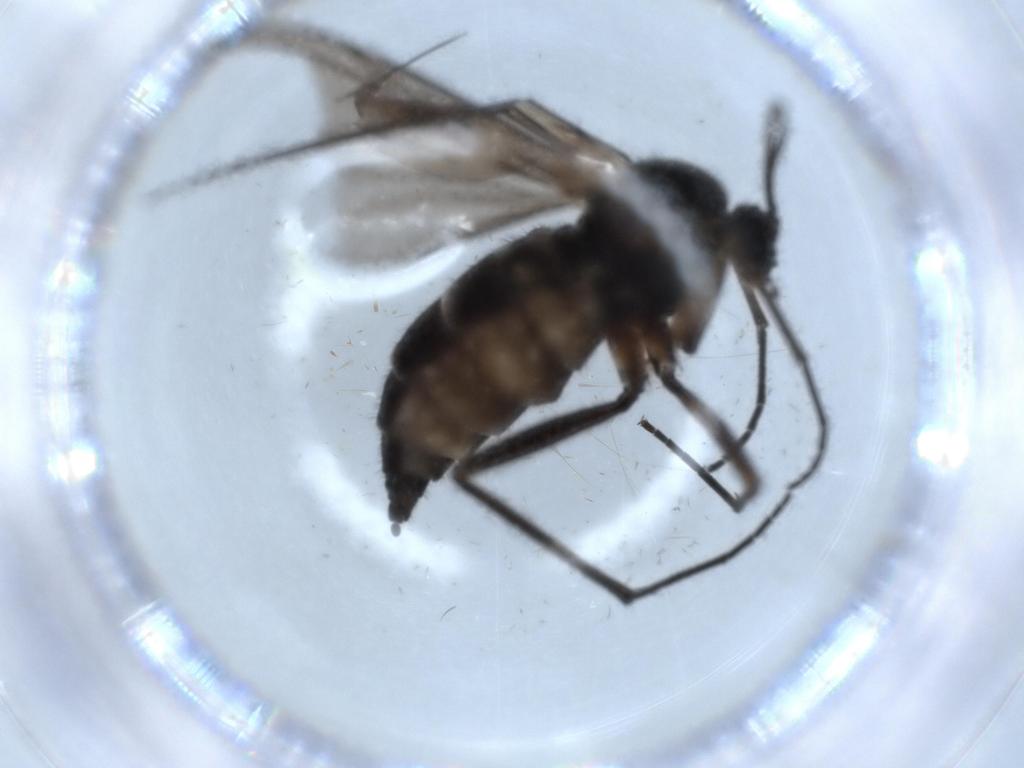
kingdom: Animalia
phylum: Arthropoda
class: Insecta
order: Diptera
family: Sciaridae
